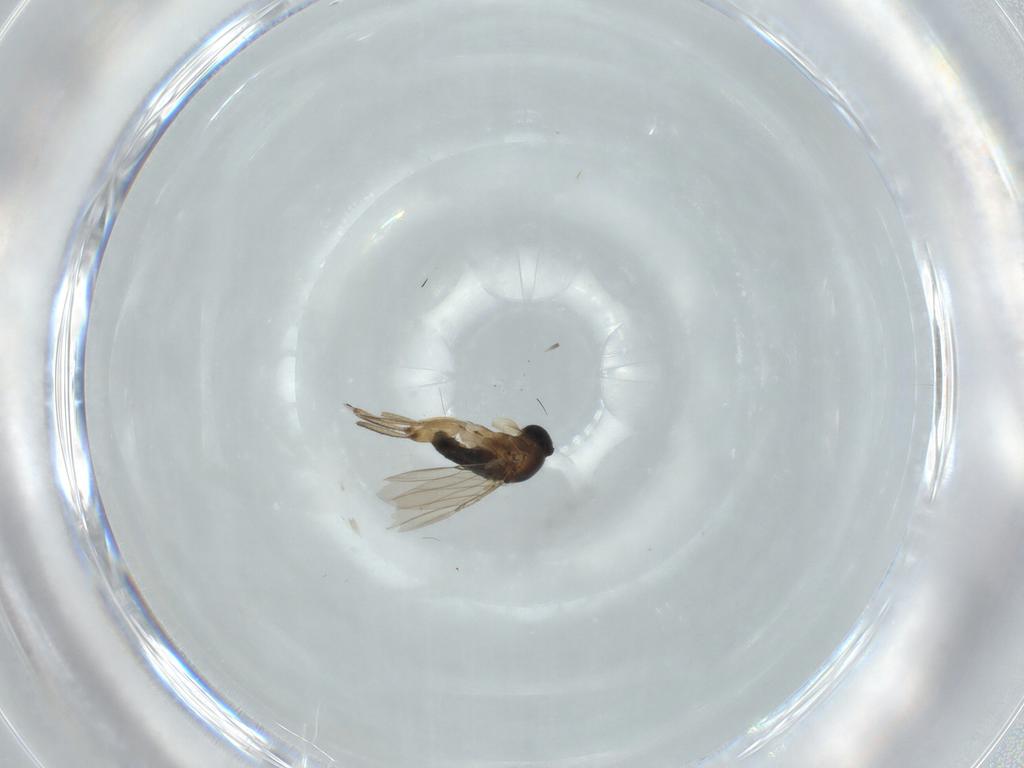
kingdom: Animalia
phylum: Arthropoda
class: Insecta
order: Diptera
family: Phoridae
